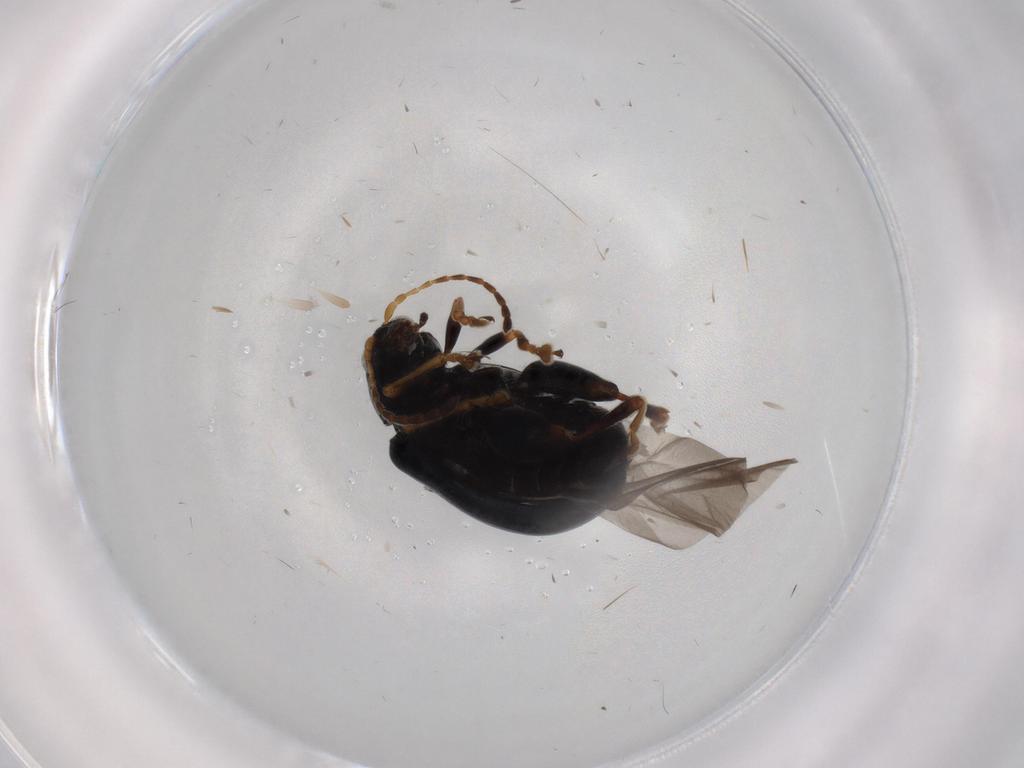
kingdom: Animalia
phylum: Arthropoda
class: Insecta
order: Coleoptera
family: Chrysomelidae
